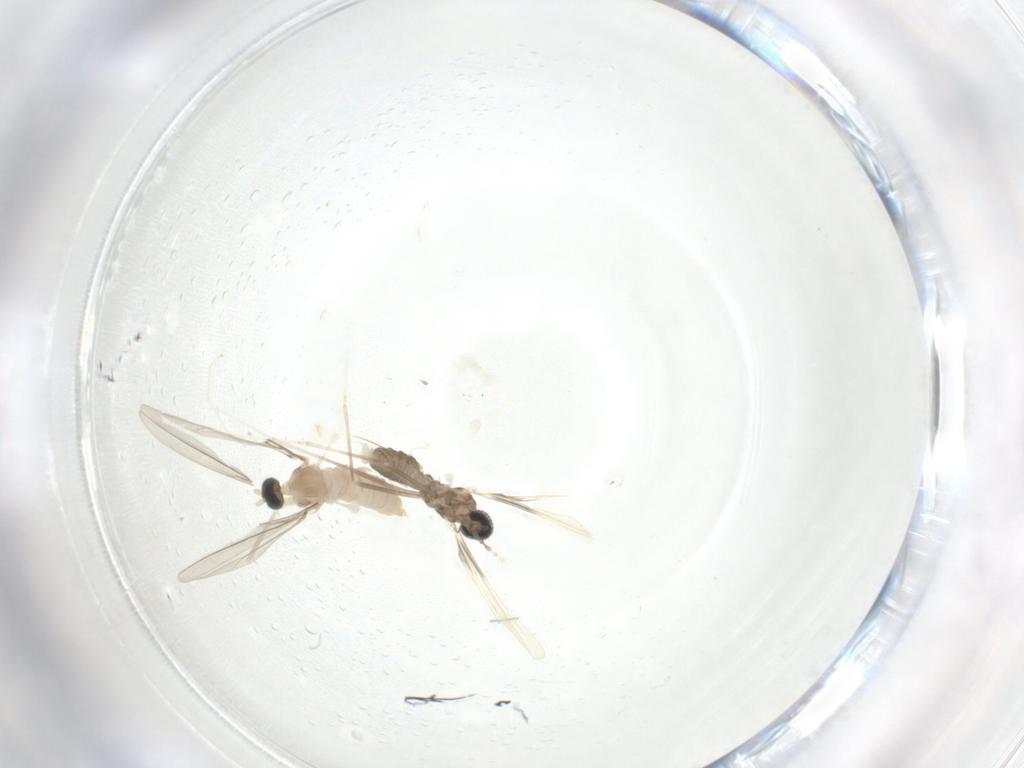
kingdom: Animalia
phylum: Arthropoda
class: Insecta
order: Diptera
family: Cecidomyiidae
